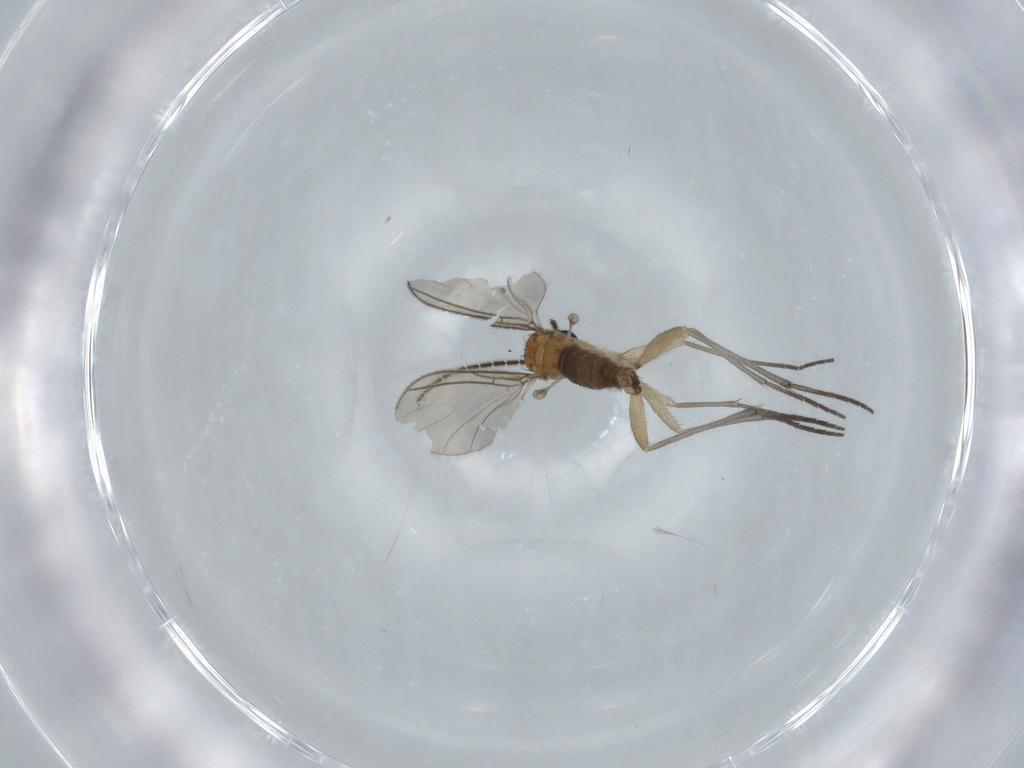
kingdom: Animalia
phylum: Arthropoda
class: Insecta
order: Diptera
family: Sciaridae
